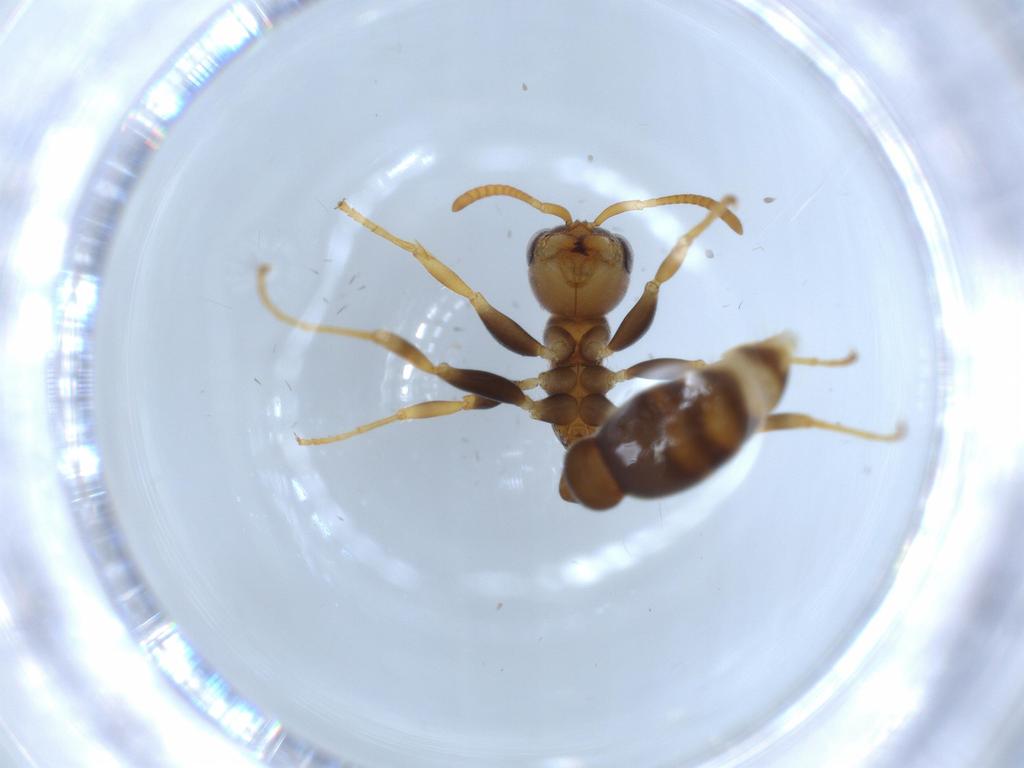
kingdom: Animalia
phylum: Arthropoda
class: Insecta
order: Hymenoptera
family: Formicidae
